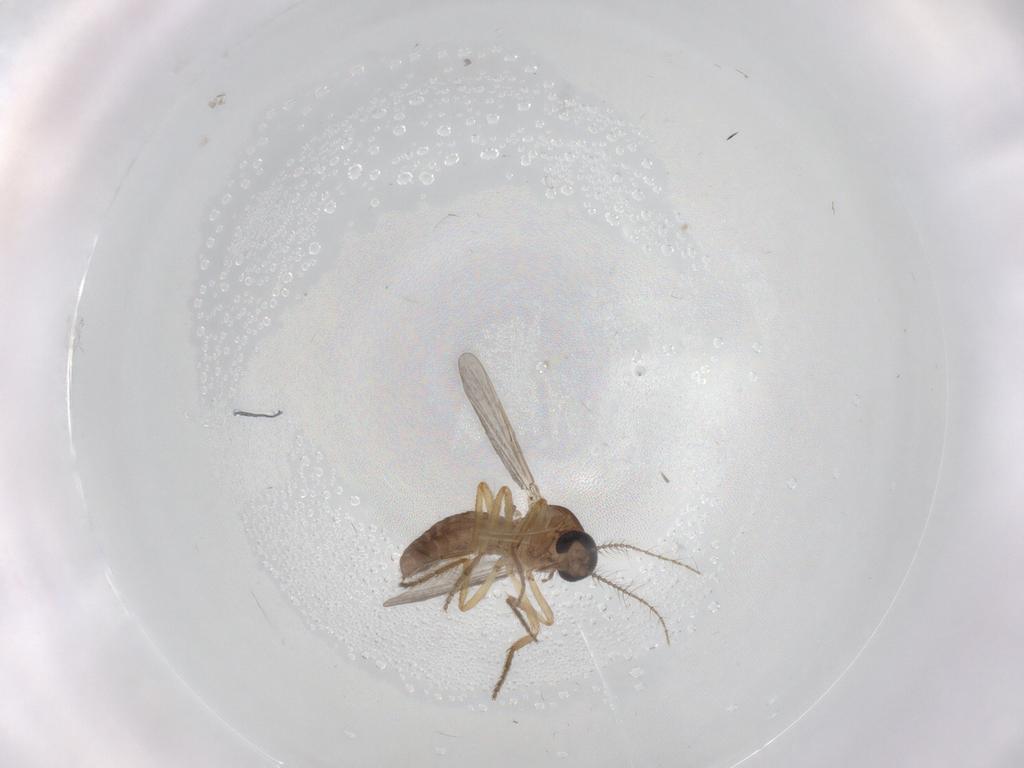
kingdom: Animalia
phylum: Arthropoda
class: Insecta
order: Diptera
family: Ceratopogonidae
